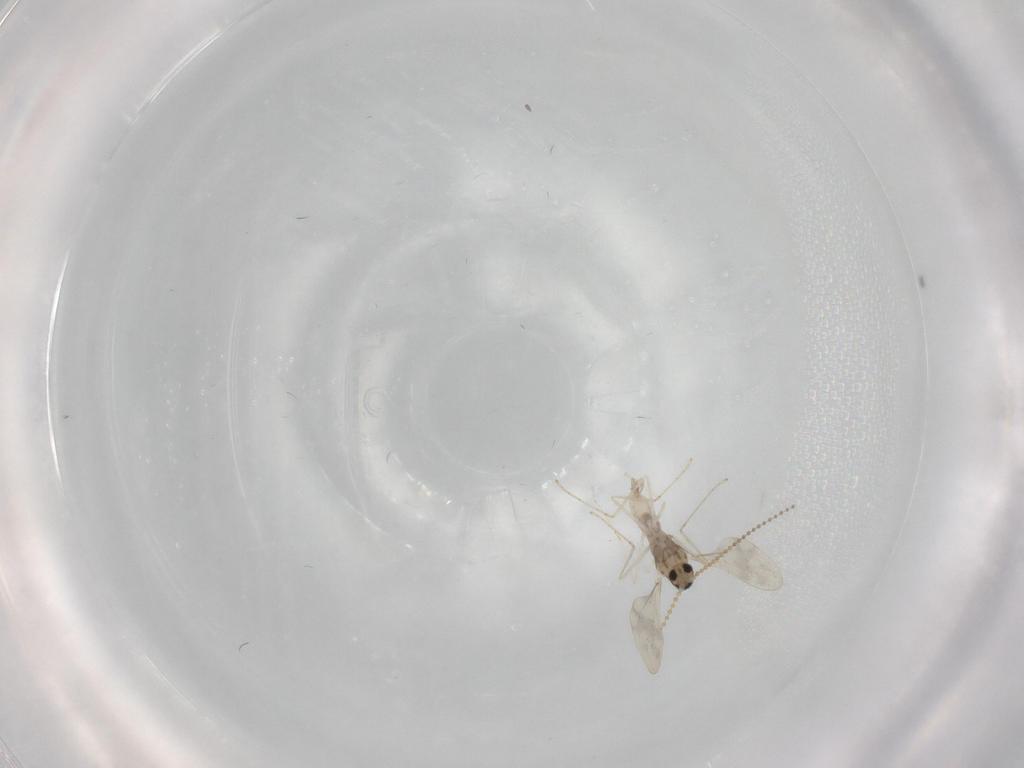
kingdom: Animalia
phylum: Arthropoda
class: Insecta
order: Diptera
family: Cecidomyiidae
